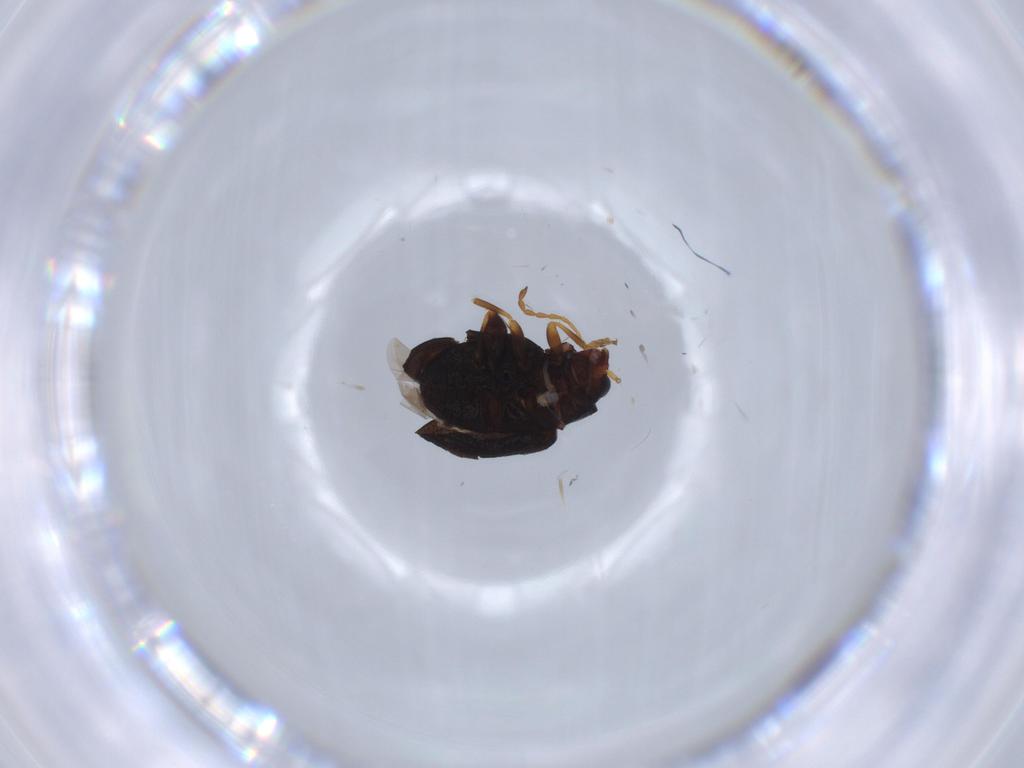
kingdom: Animalia
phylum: Arthropoda
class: Insecta
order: Coleoptera
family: Chrysomelidae
